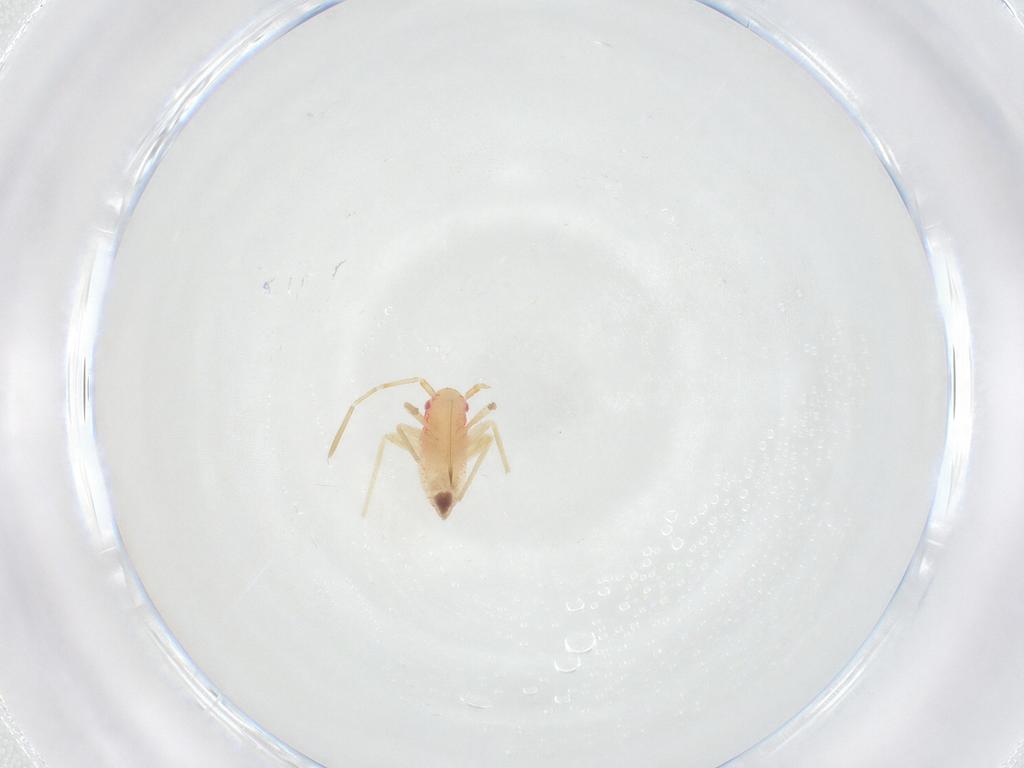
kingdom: Animalia
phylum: Arthropoda
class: Insecta
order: Hemiptera
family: Miridae
